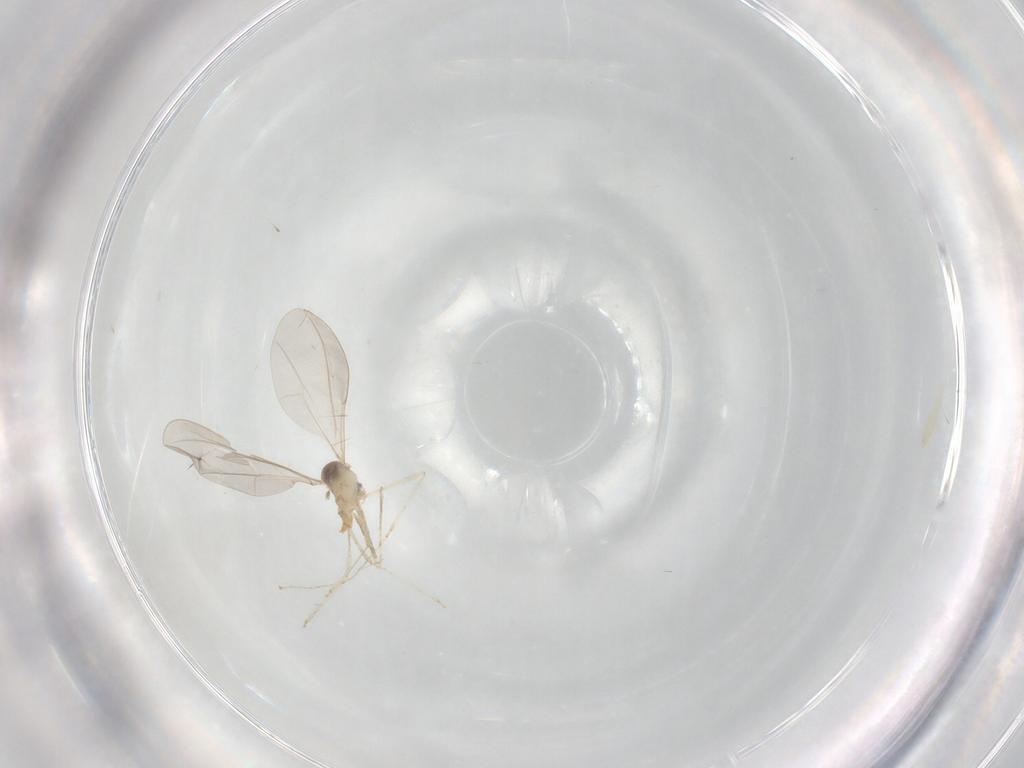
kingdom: Animalia
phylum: Arthropoda
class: Insecta
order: Diptera
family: Cecidomyiidae
